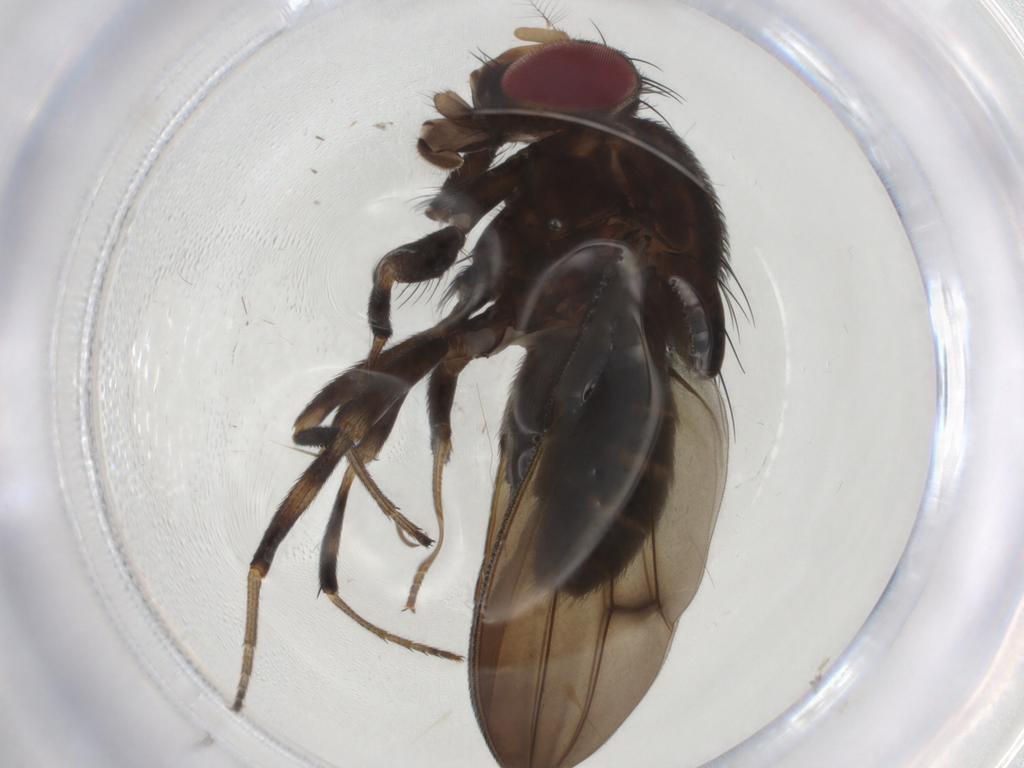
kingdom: Animalia
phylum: Arthropoda
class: Insecta
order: Diptera
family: Drosophilidae
